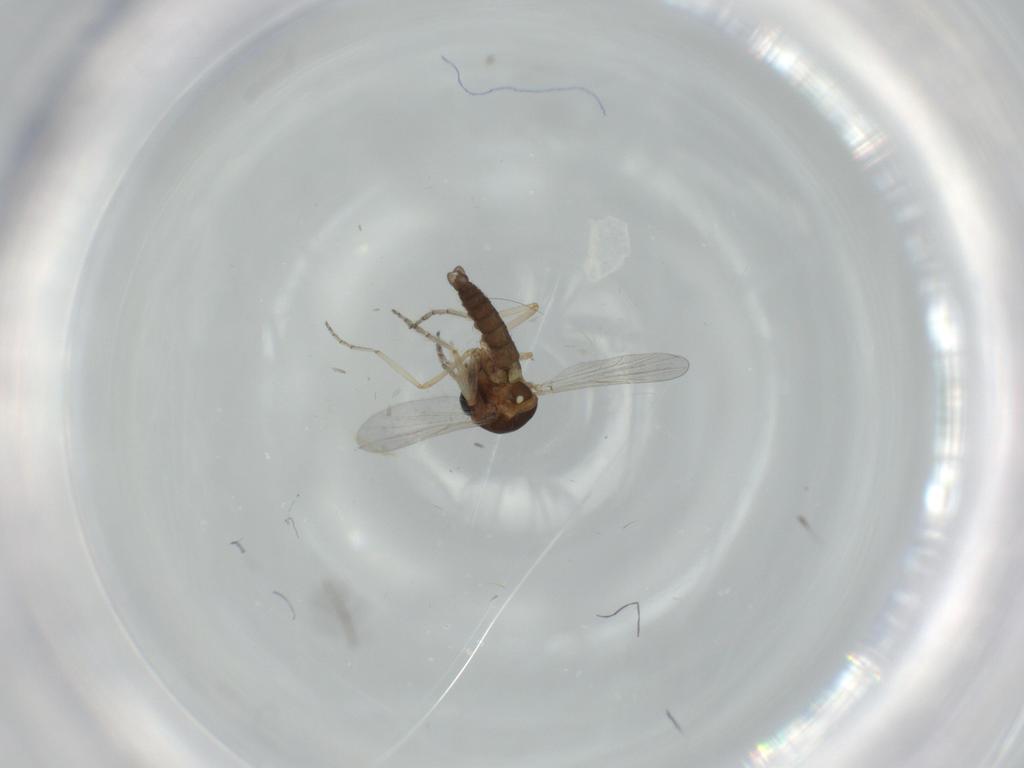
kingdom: Animalia
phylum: Arthropoda
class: Insecta
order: Diptera
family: Ceratopogonidae
